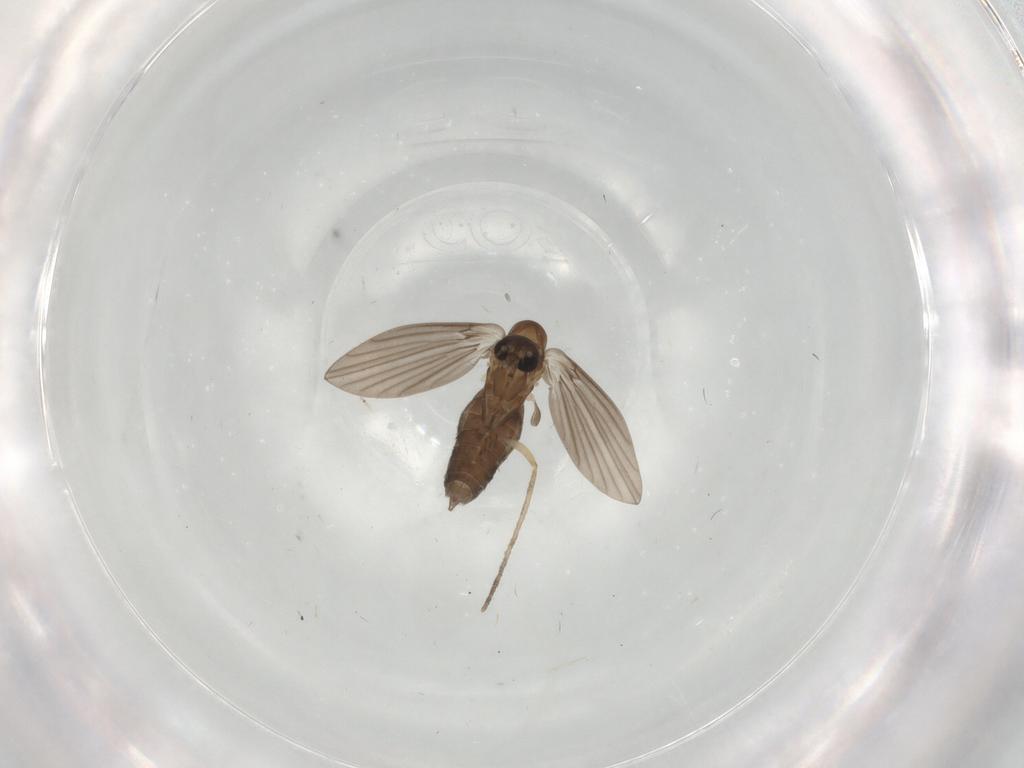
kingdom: Animalia
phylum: Arthropoda
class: Insecta
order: Diptera
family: Psychodidae
